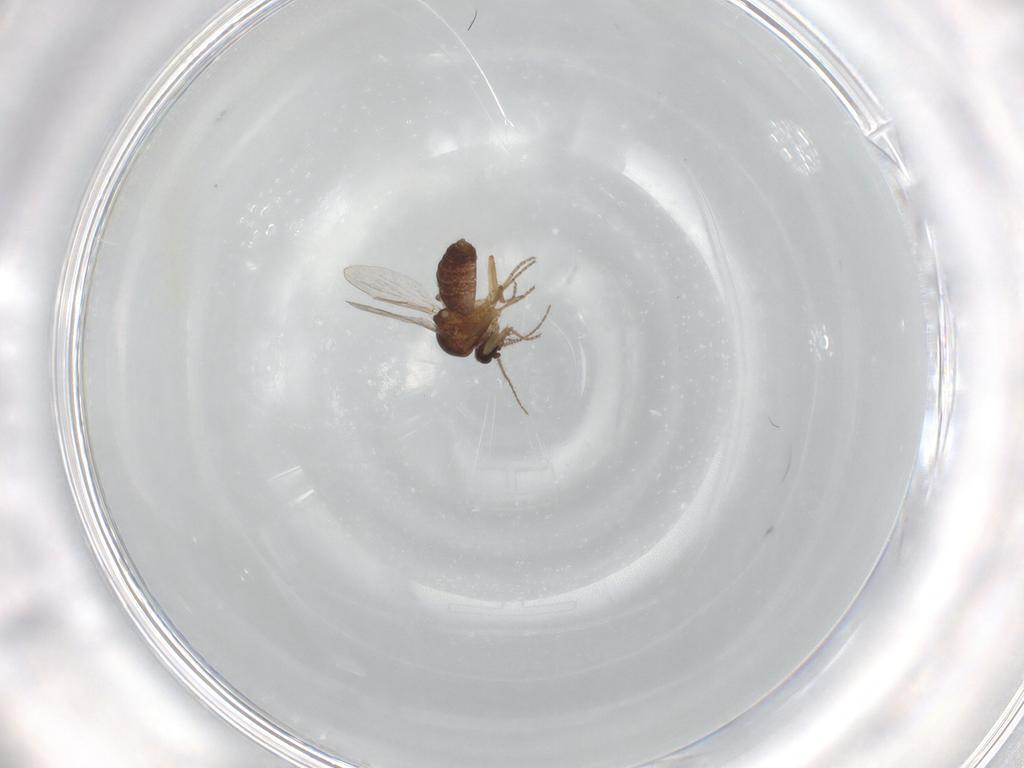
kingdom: Animalia
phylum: Arthropoda
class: Insecta
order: Diptera
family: Ceratopogonidae
